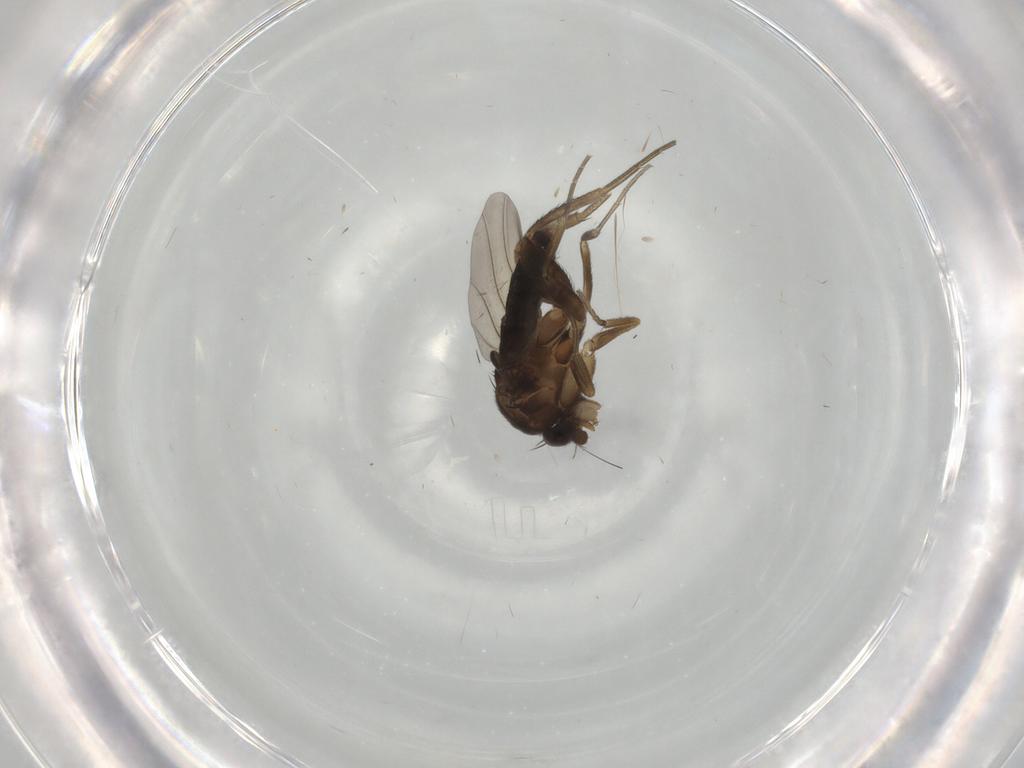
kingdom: Animalia
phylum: Arthropoda
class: Insecta
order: Diptera
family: Phoridae
